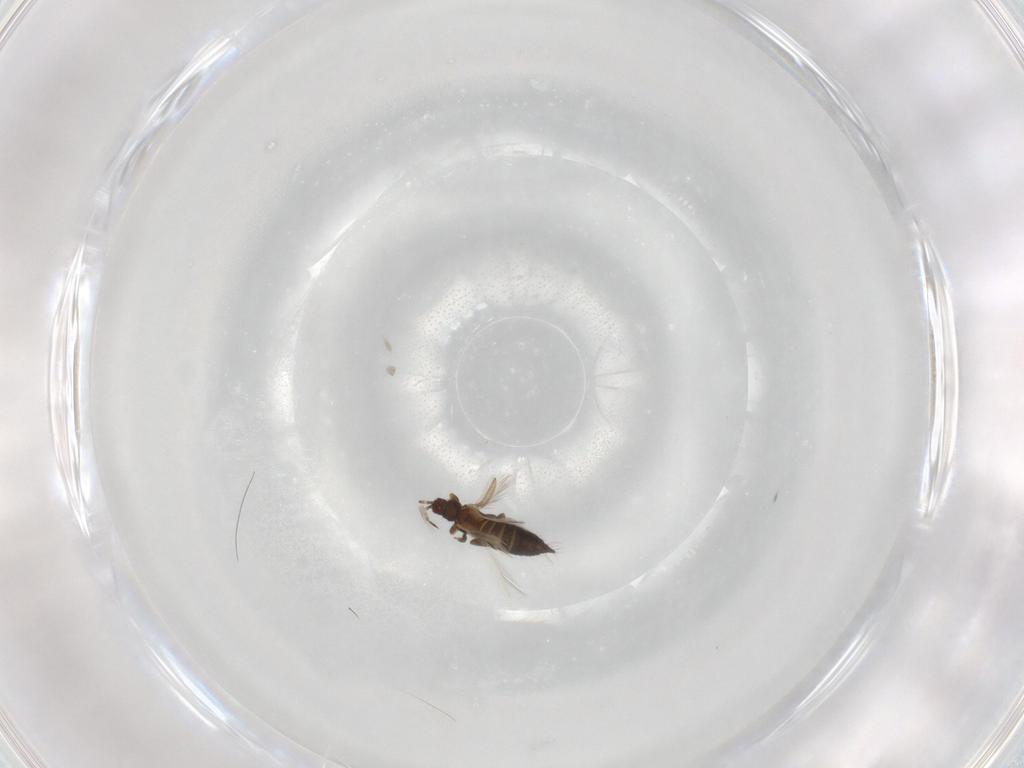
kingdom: Animalia
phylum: Arthropoda
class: Insecta
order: Thysanoptera
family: Thripidae
